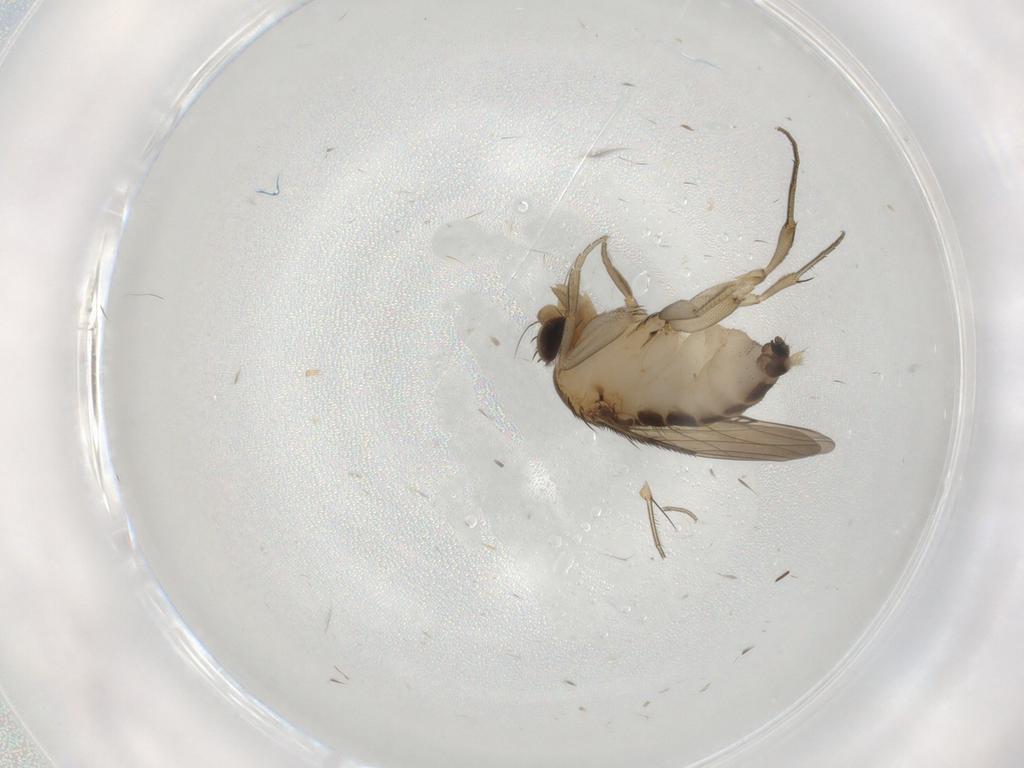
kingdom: Animalia
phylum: Arthropoda
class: Insecta
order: Diptera
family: Phoridae
